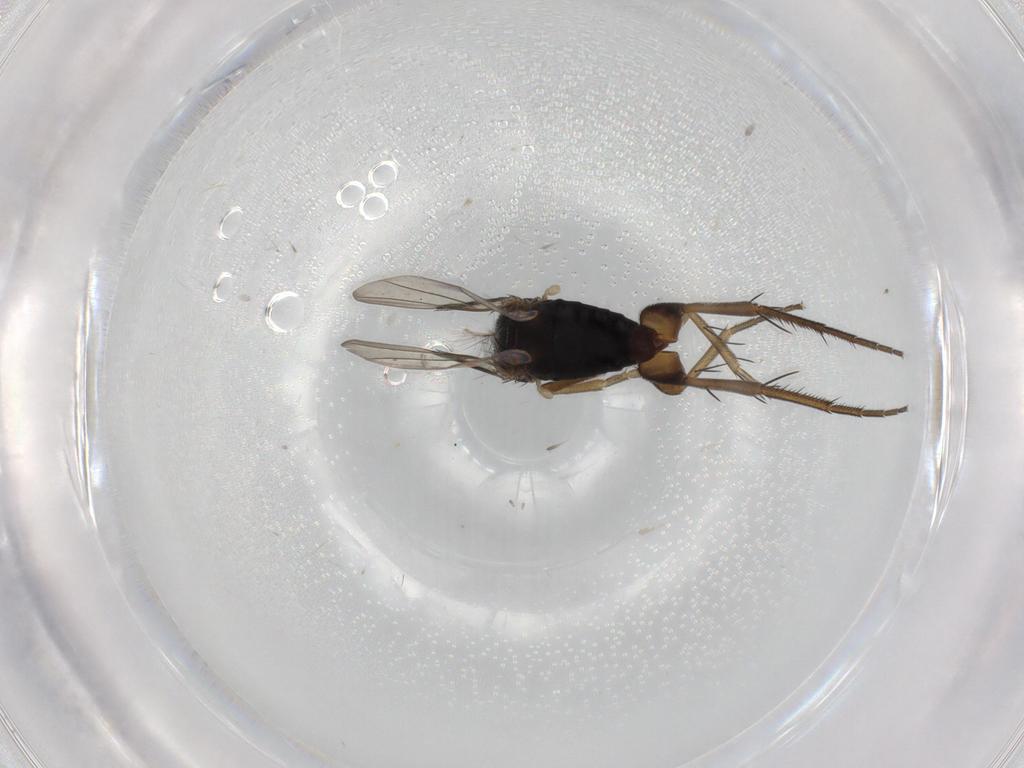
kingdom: Animalia
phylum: Arthropoda
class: Insecta
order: Diptera
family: Phoridae
